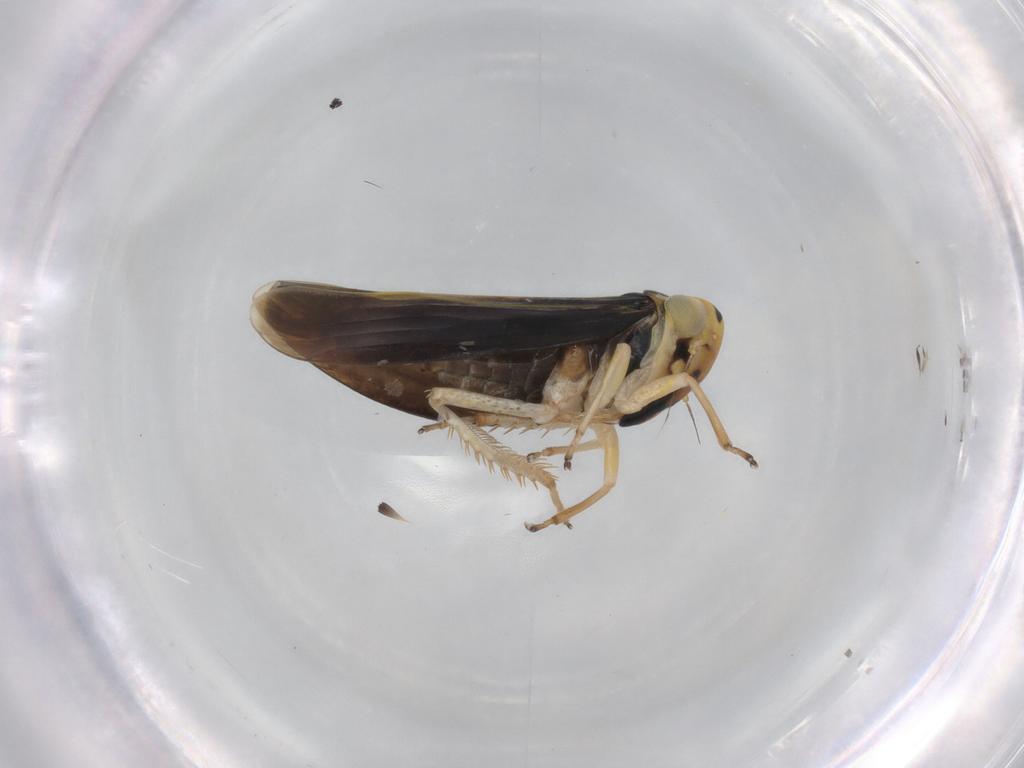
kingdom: Animalia
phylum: Arthropoda
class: Insecta
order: Hemiptera
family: Cicadellidae
